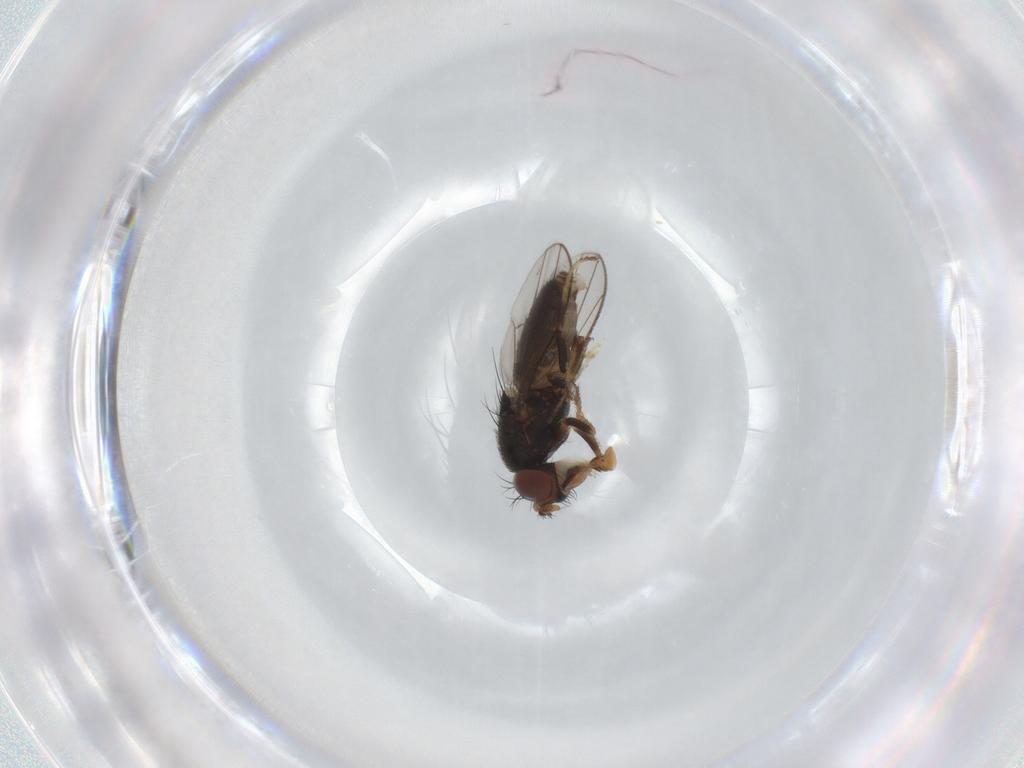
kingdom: Animalia
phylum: Arthropoda
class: Insecta
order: Diptera
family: Ephydridae
